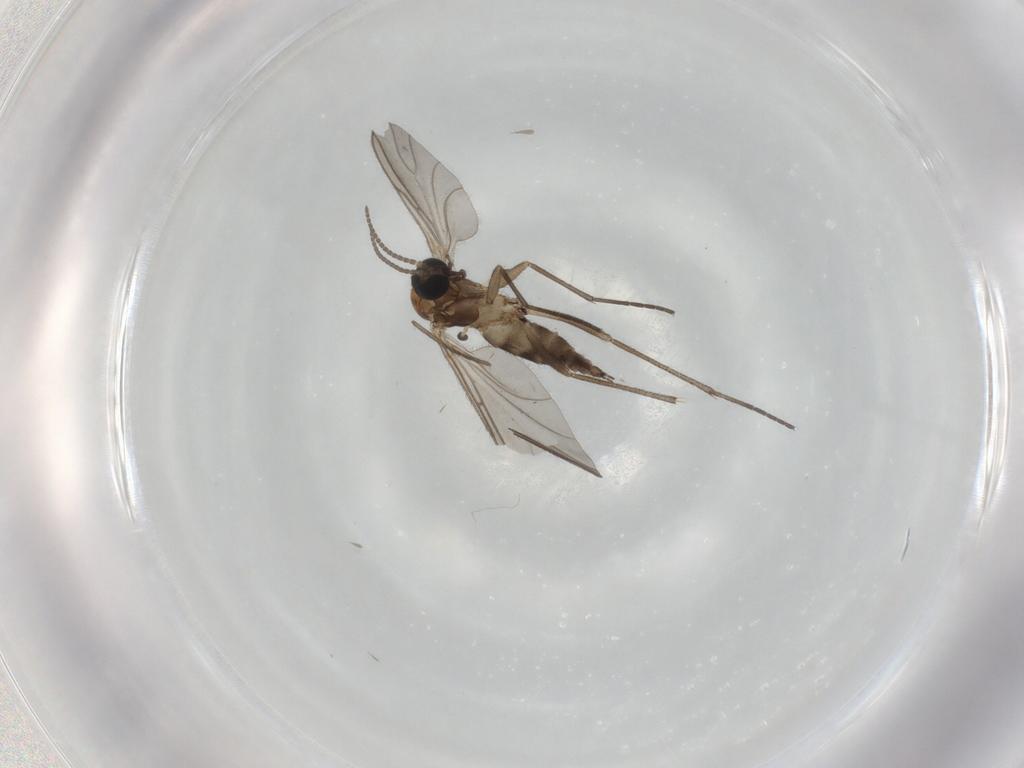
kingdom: Animalia
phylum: Arthropoda
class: Insecta
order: Diptera
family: Sciaridae
